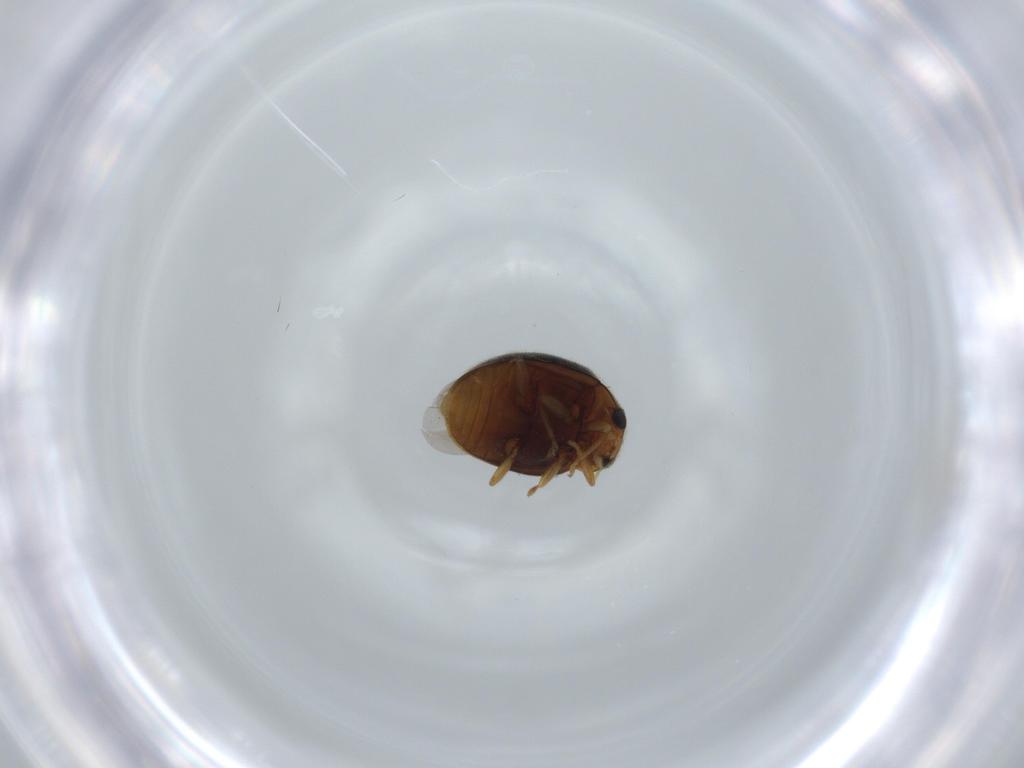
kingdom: Animalia
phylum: Arthropoda
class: Insecta
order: Coleoptera
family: Coccinellidae
